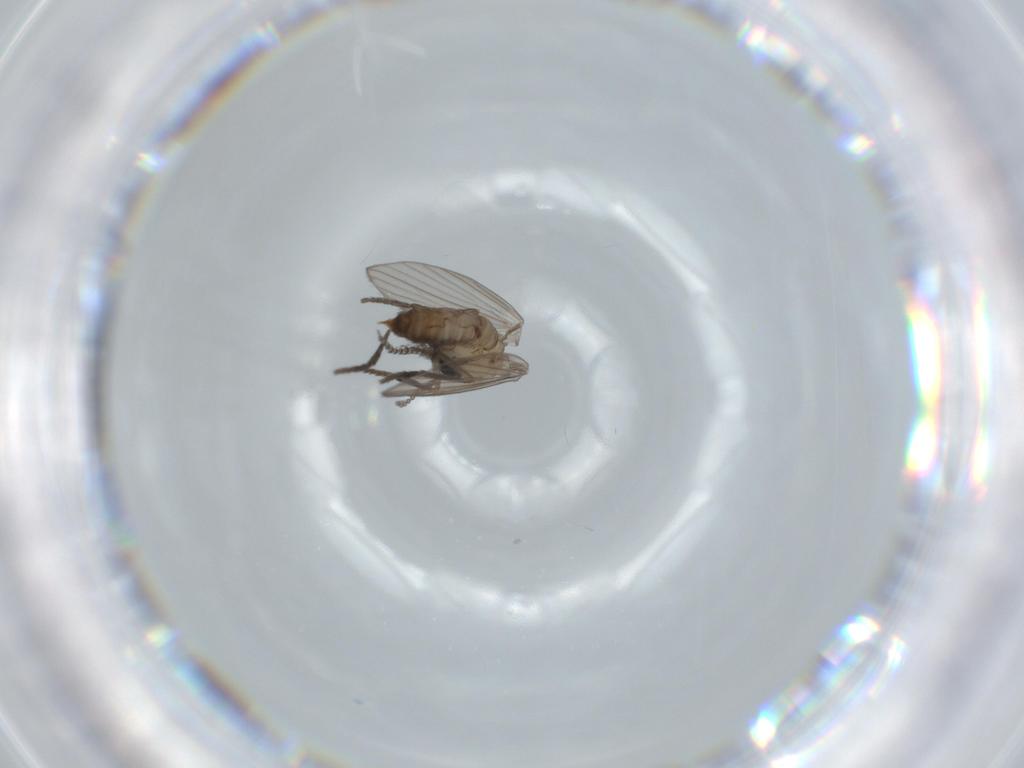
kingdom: Animalia
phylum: Arthropoda
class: Insecta
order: Diptera
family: Psychodidae
